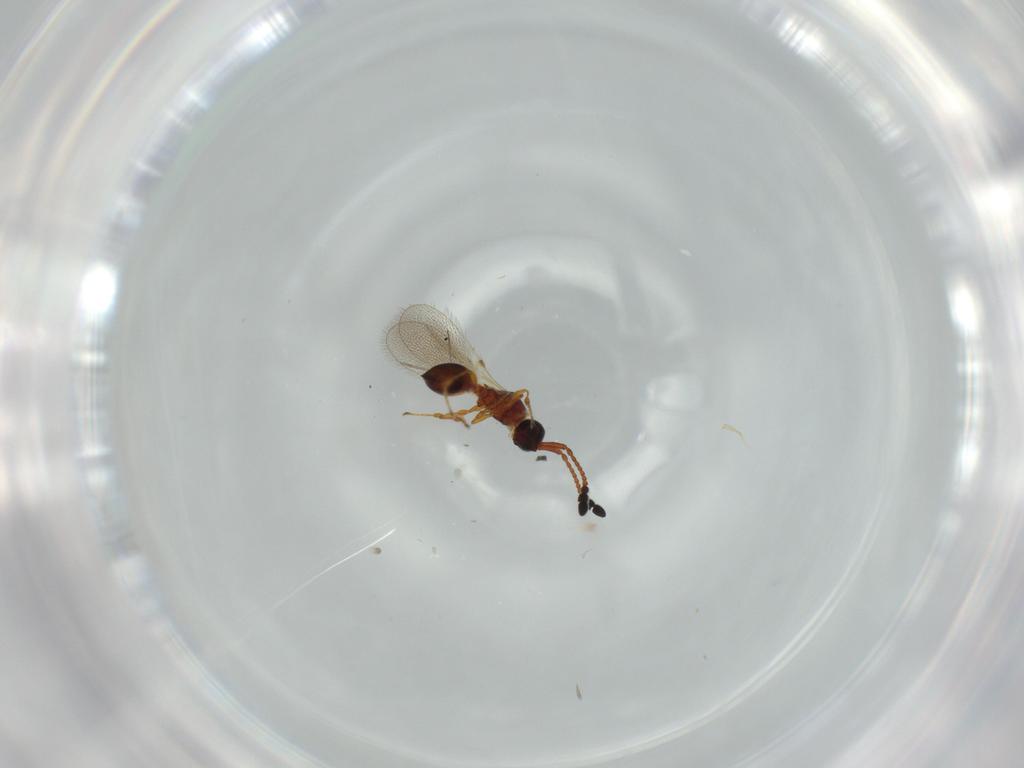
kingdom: Animalia
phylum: Arthropoda
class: Insecta
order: Hymenoptera
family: Diapriidae
